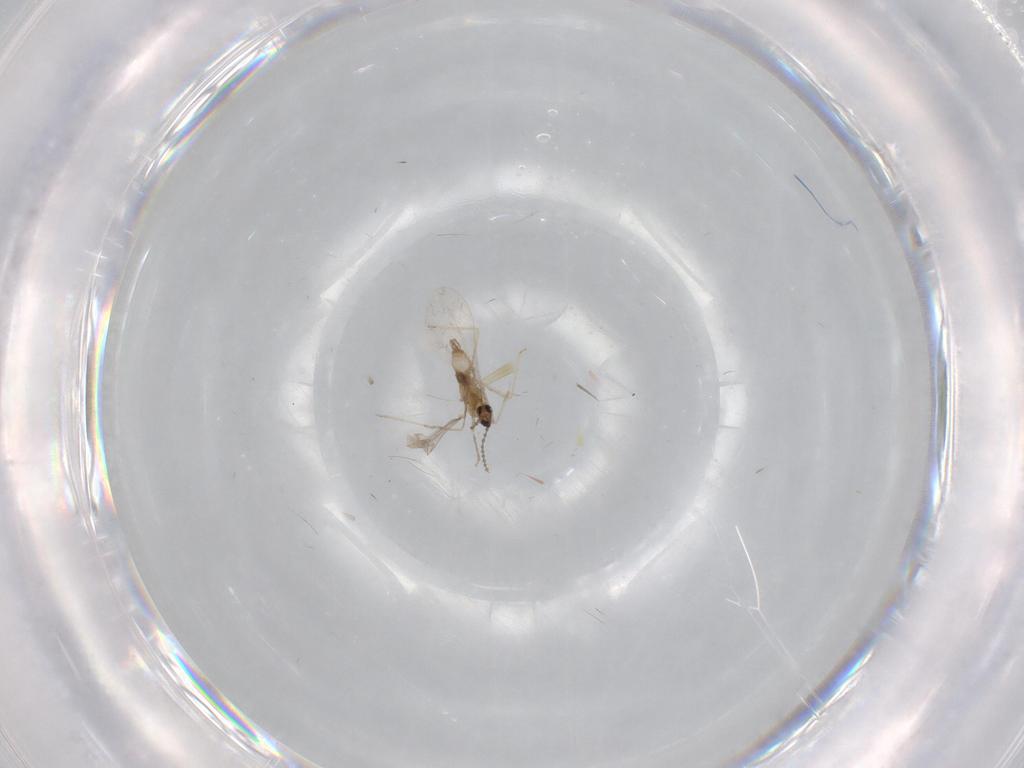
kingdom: Animalia
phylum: Arthropoda
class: Insecta
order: Diptera
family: Cecidomyiidae
